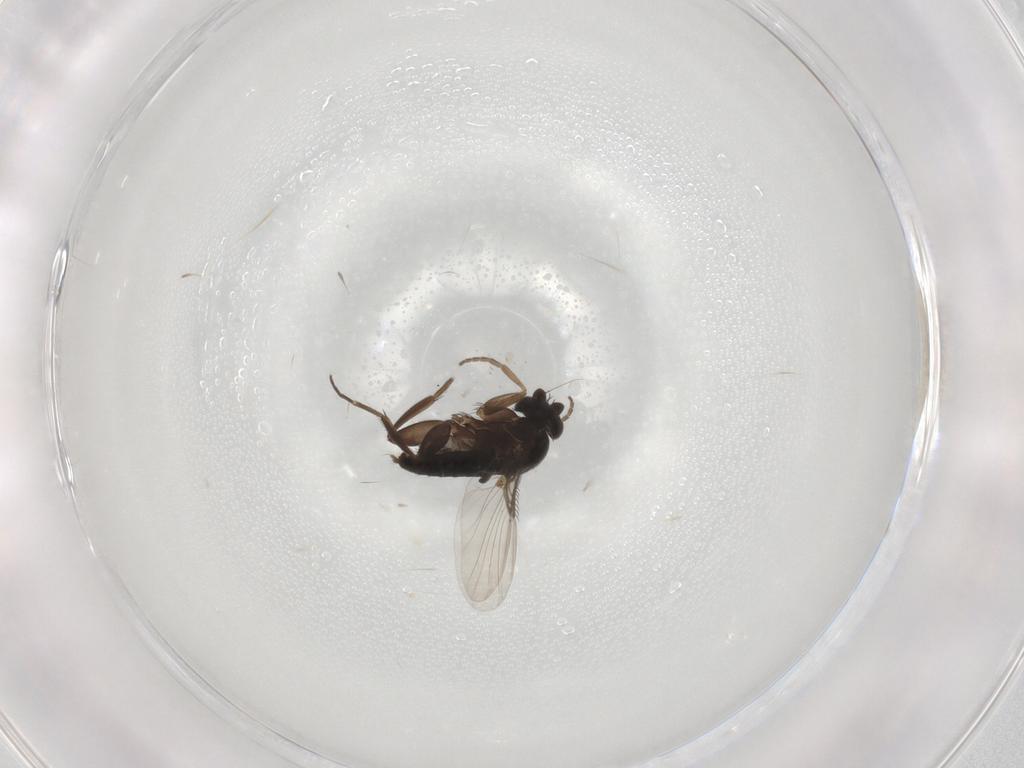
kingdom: Animalia
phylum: Arthropoda
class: Insecta
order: Diptera
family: Phoridae
